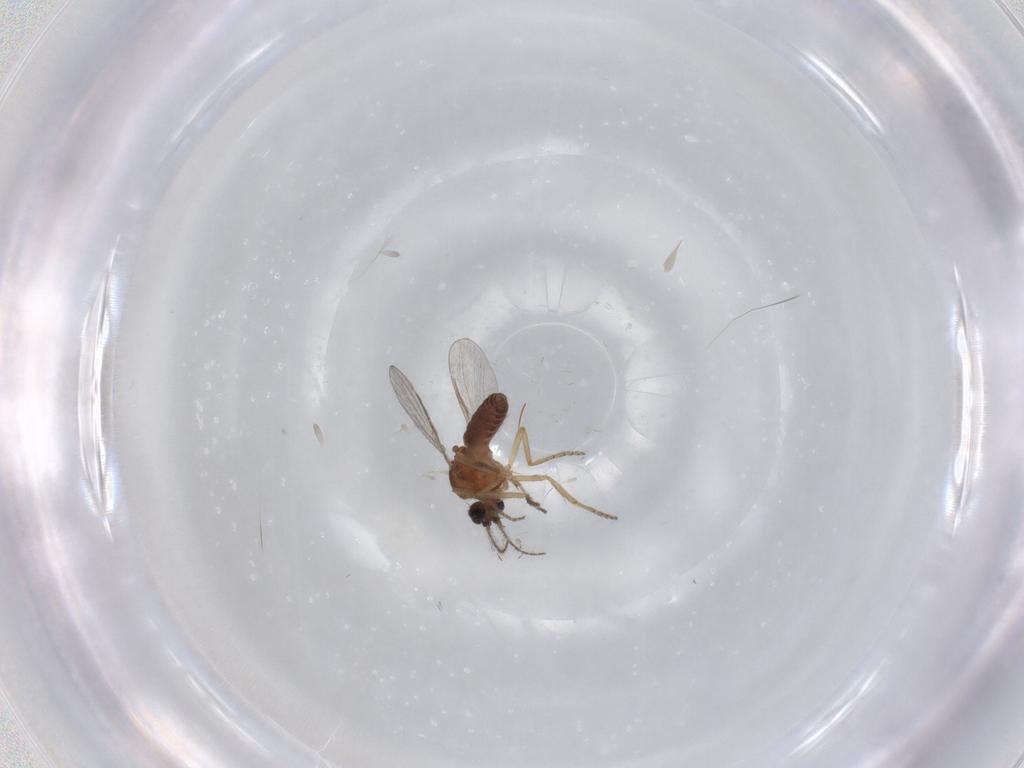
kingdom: Animalia
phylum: Arthropoda
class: Insecta
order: Diptera
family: Ceratopogonidae
